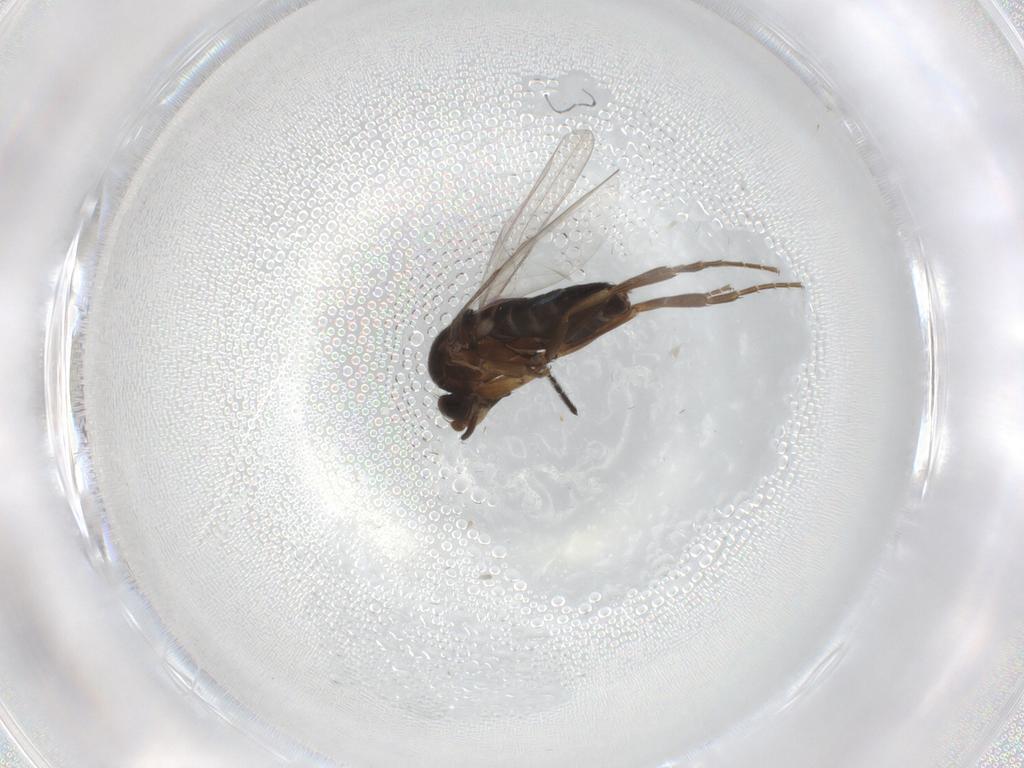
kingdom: Animalia
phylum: Arthropoda
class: Insecta
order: Diptera
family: Phoridae
